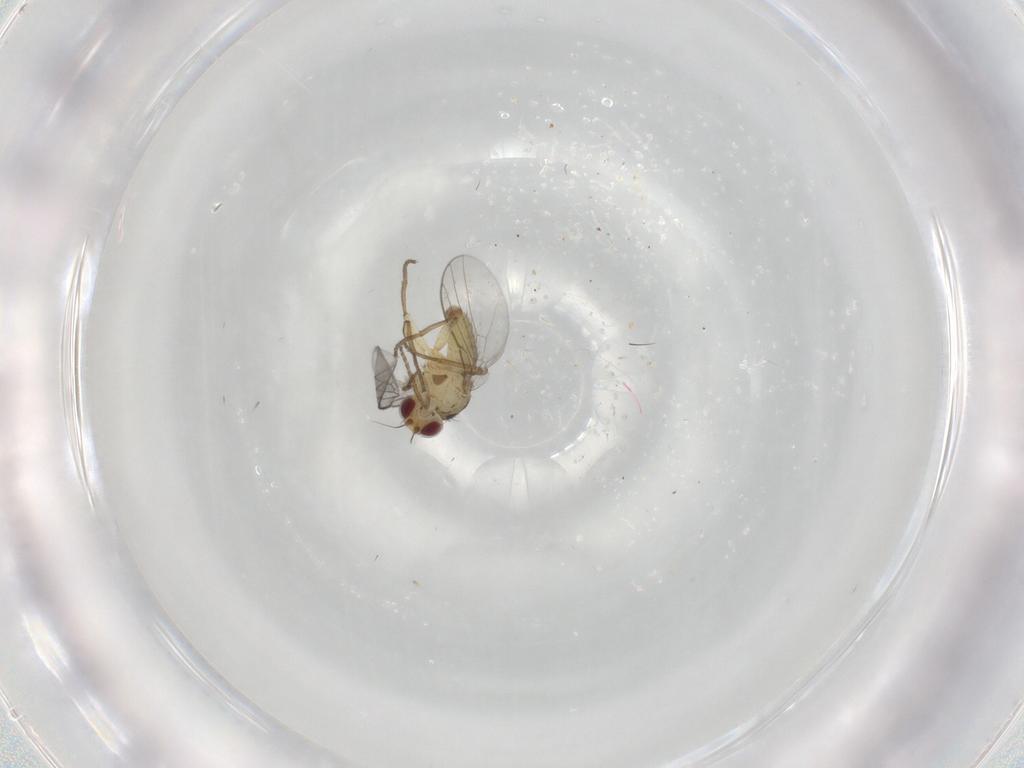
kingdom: Animalia
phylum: Arthropoda
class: Insecta
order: Diptera
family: Agromyzidae
